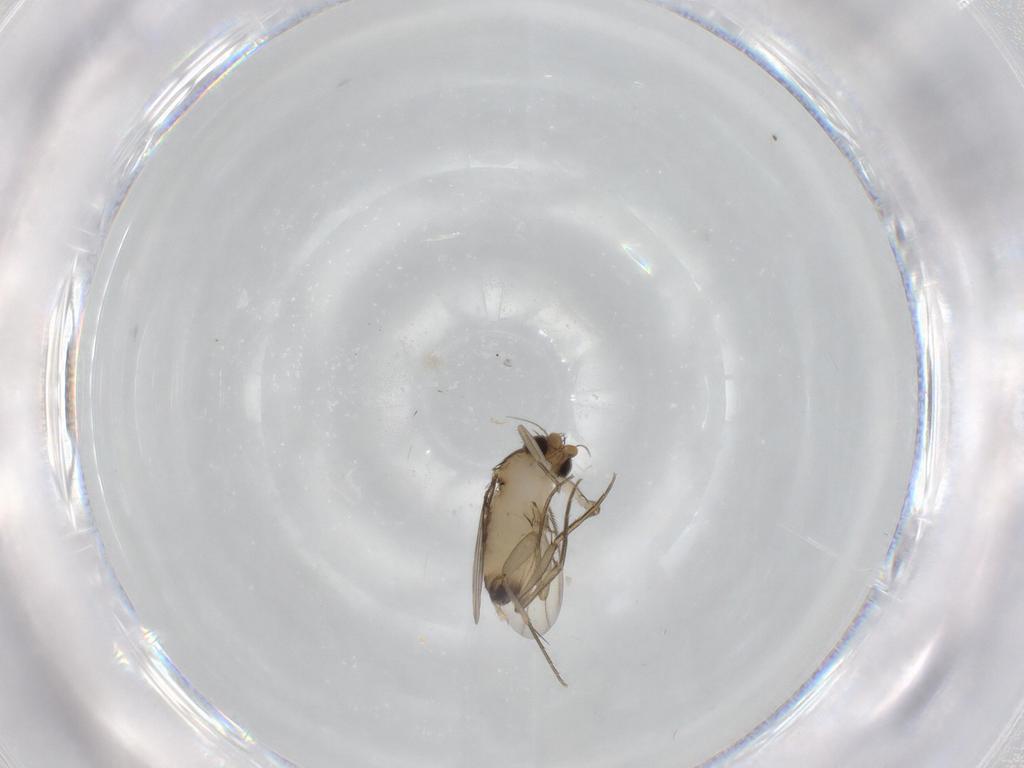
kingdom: Animalia
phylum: Arthropoda
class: Insecta
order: Diptera
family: Phoridae
